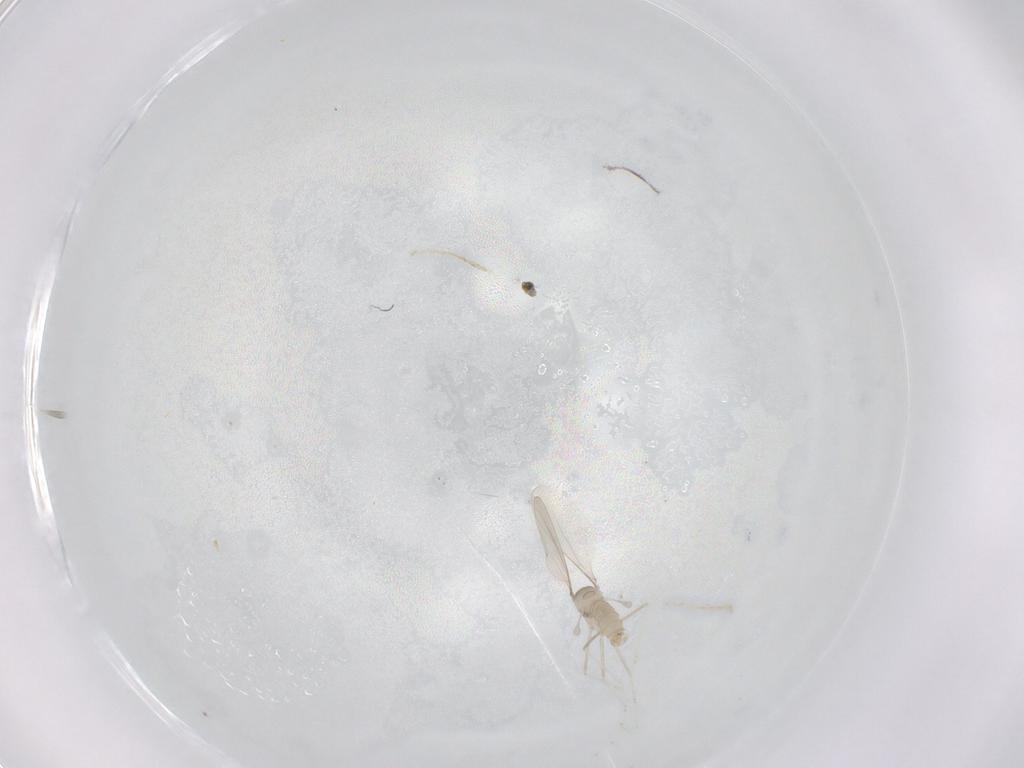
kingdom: Animalia
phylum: Arthropoda
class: Insecta
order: Diptera
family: Cecidomyiidae
